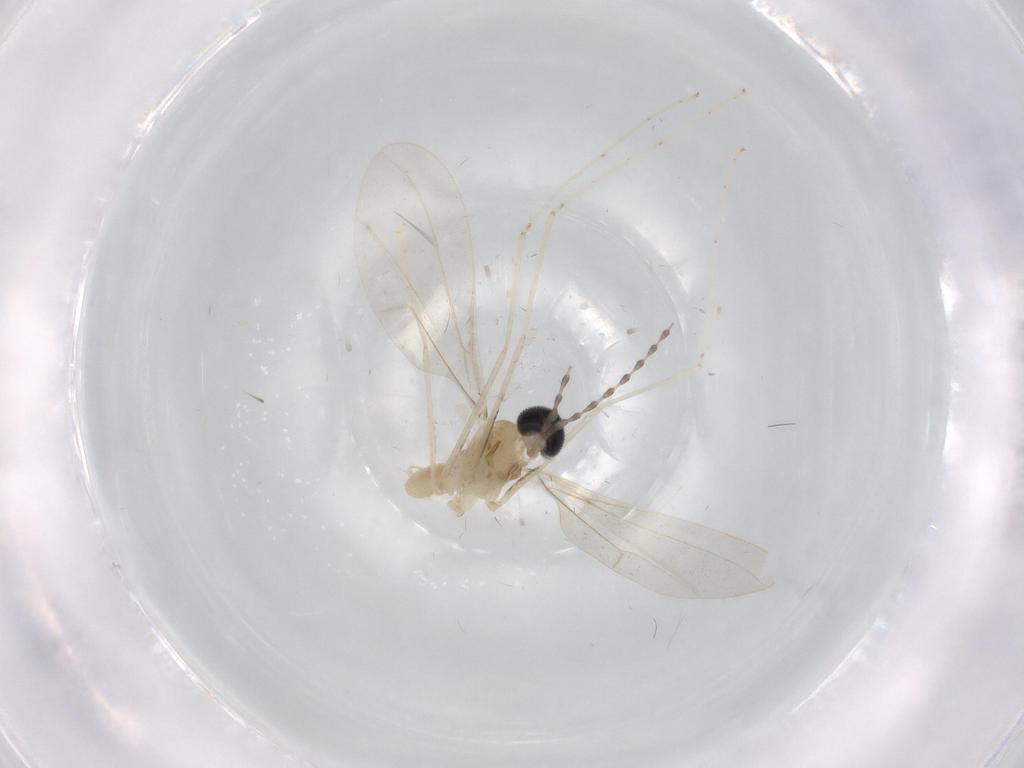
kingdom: Animalia
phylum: Arthropoda
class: Insecta
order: Diptera
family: Cecidomyiidae
